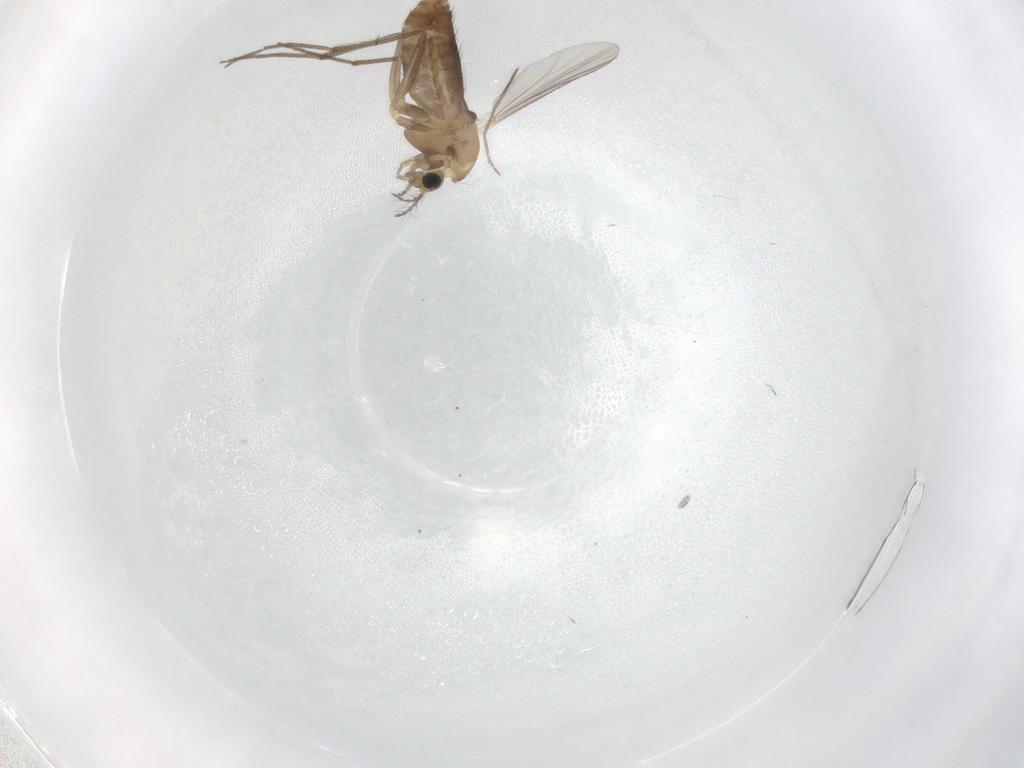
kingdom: Animalia
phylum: Arthropoda
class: Insecta
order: Diptera
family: Chironomidae
